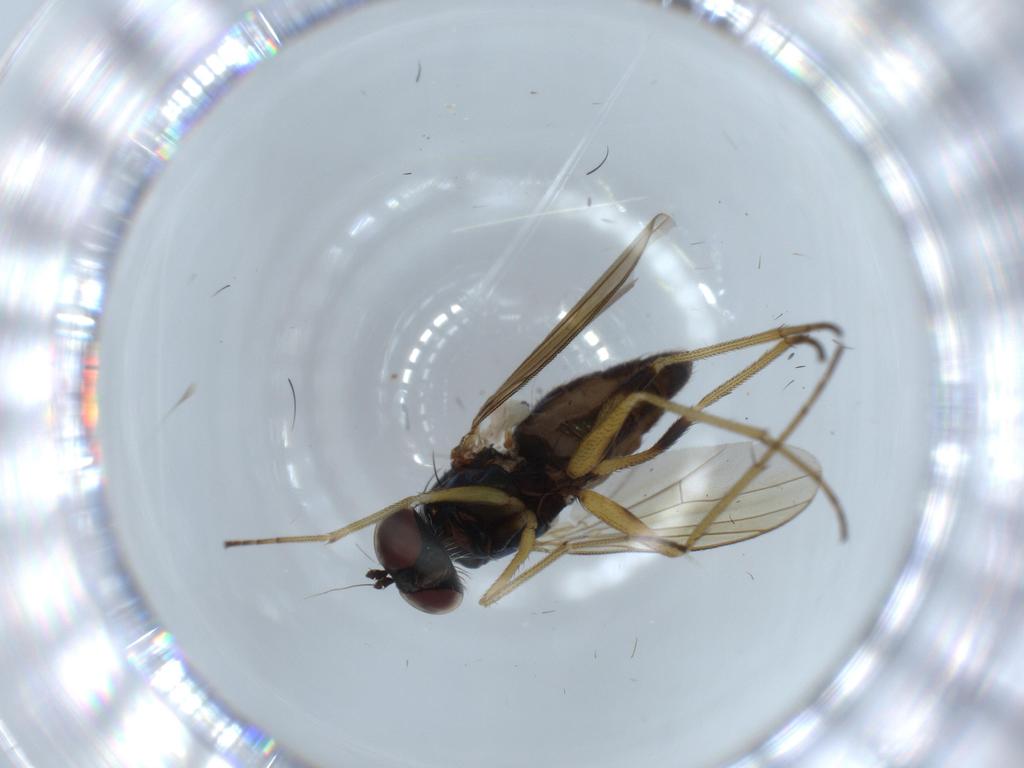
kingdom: Animalia
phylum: Arthropoda
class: Insecta
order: Diptera
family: Dolichopodidae
